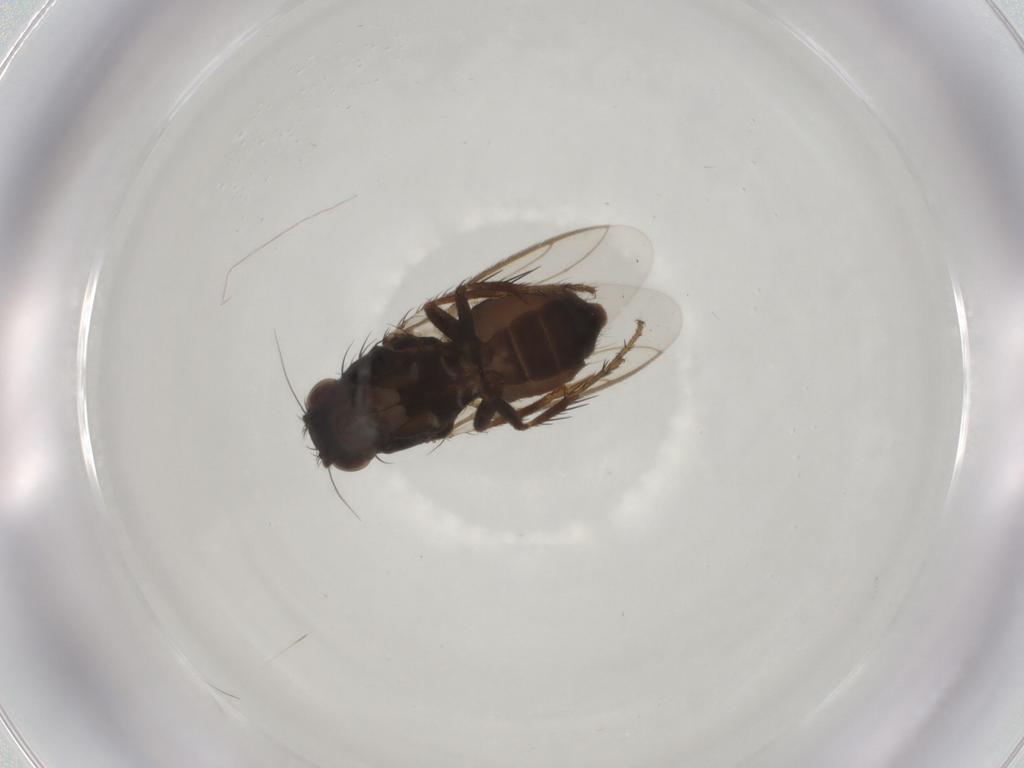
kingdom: Animalia
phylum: Arthropoda
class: Insecta
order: Diptera
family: Sphaeroceridae
